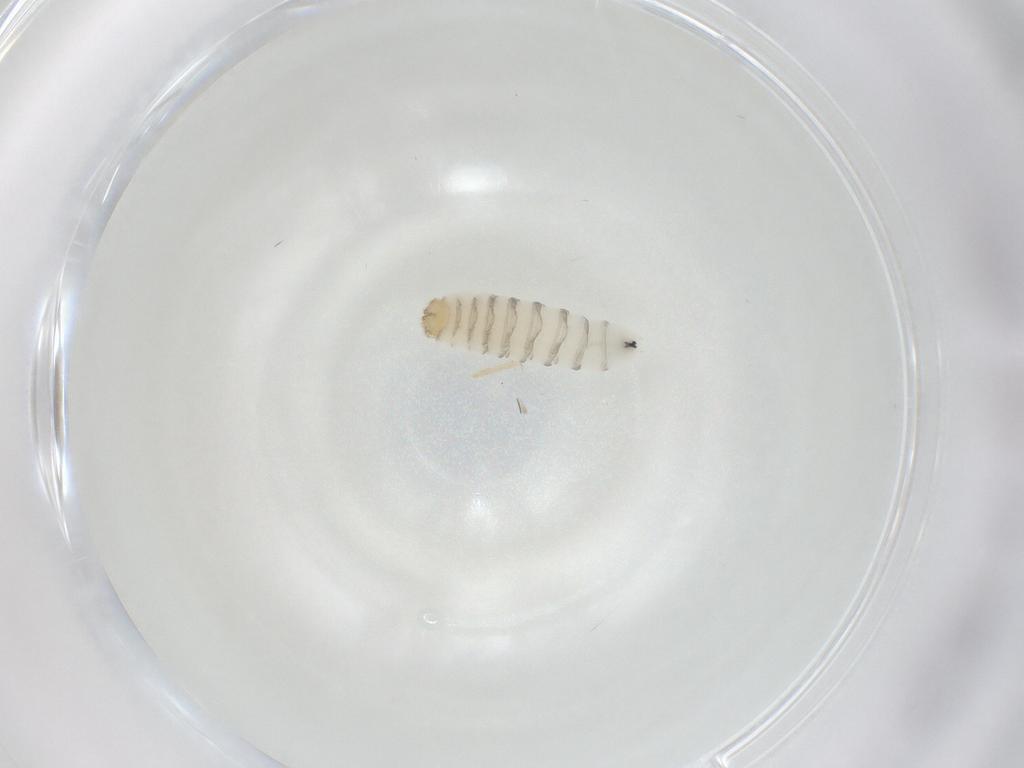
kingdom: Animalia
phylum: Arthropoda
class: Insecta
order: Diptera
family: Sarcophagidae
